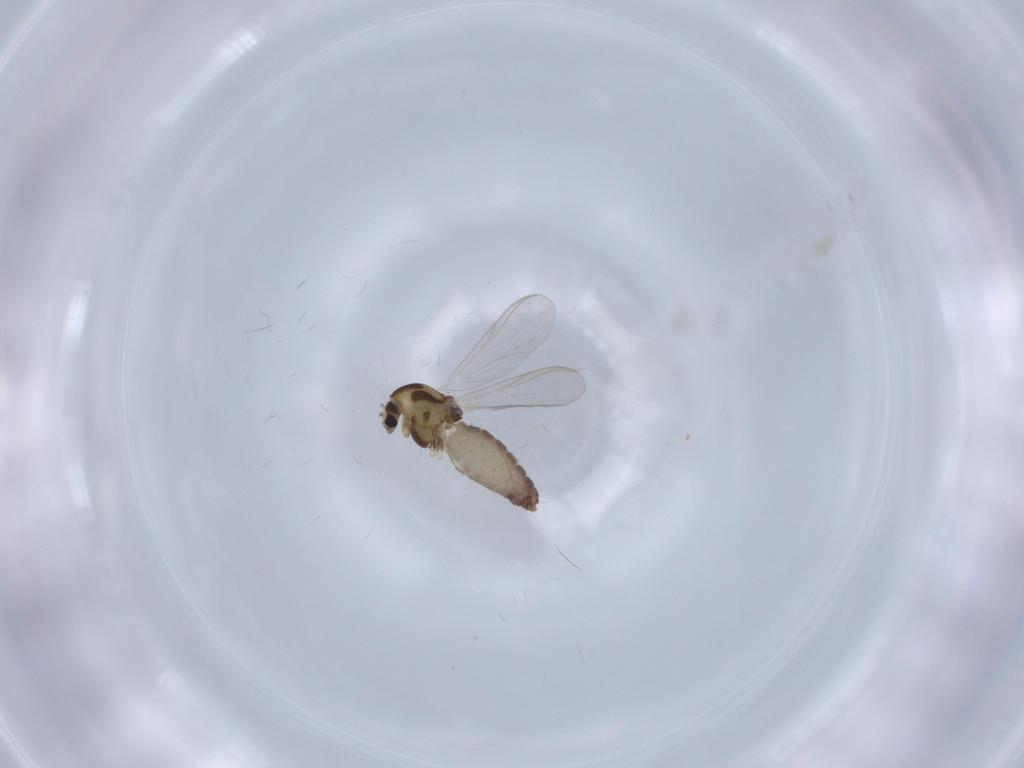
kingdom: Animalia
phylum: Arthropoda
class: Insecta
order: Diptera
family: Chironomidae
